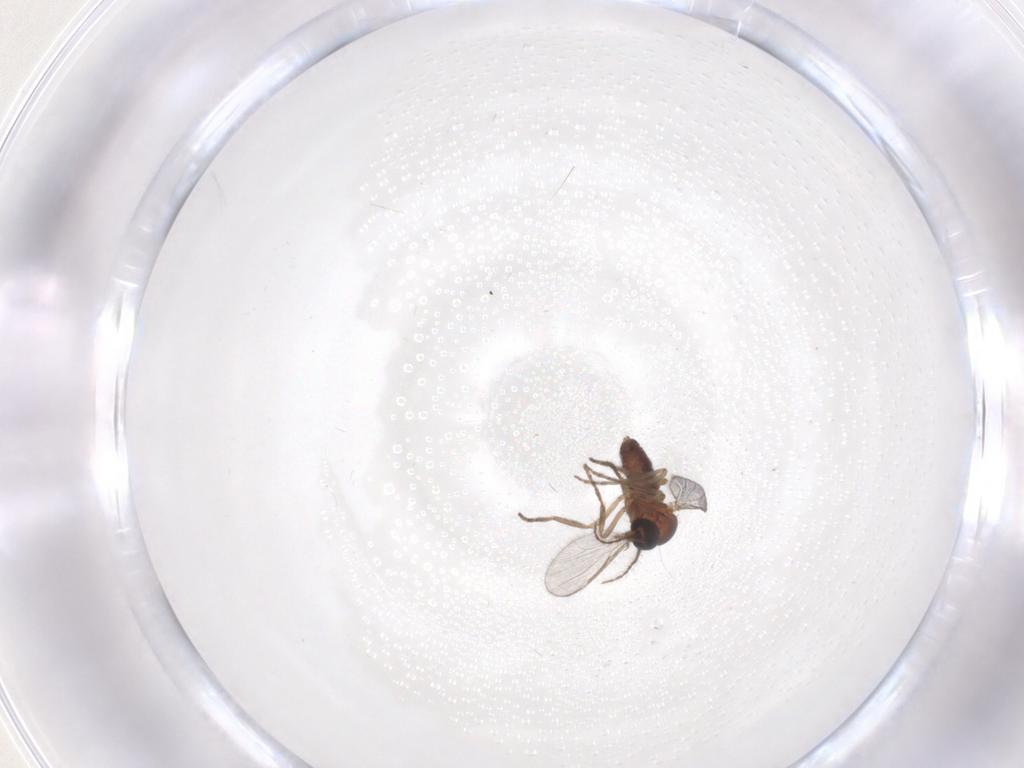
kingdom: Animalia
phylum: Arthropoda
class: Insecta
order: Diptera
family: Ceratopogonidae
